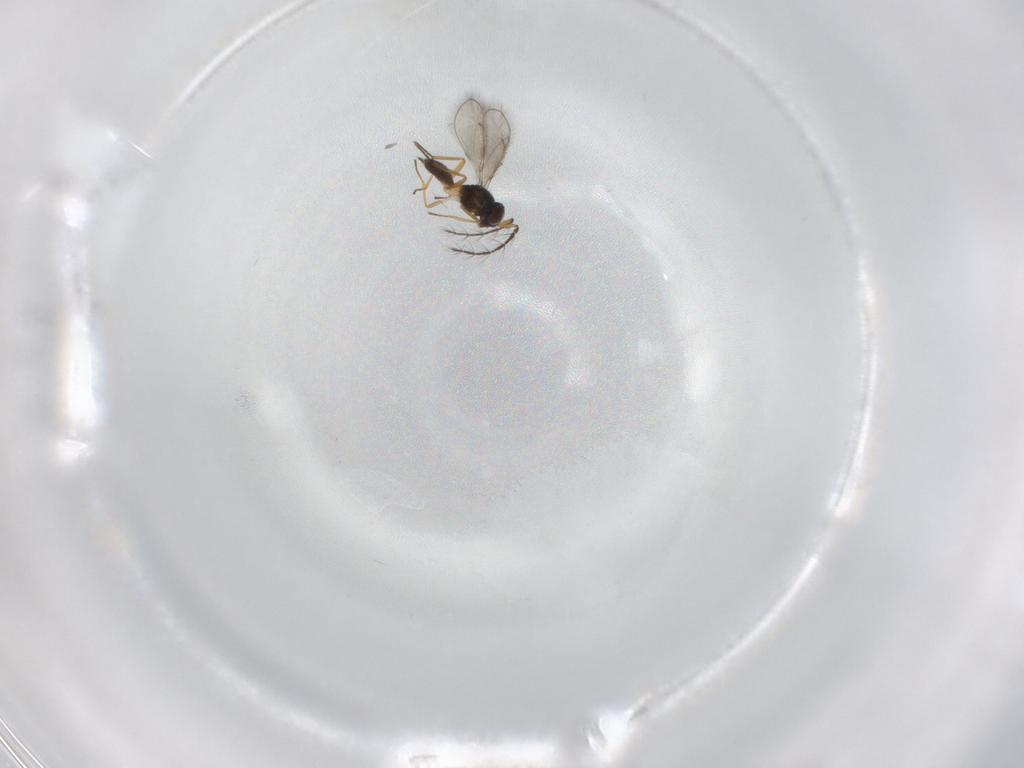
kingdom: Animalia
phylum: Arthropoda
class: Insecta
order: Hymenoptera
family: Eulophidae
